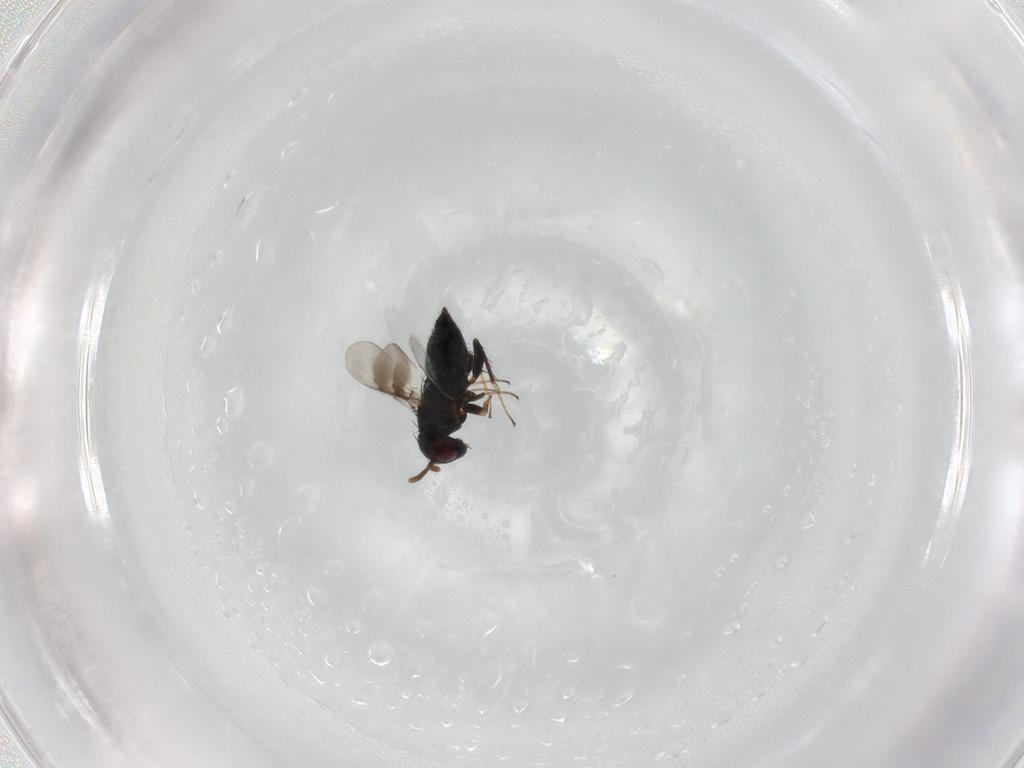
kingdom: Animalia
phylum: Arthropoda
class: Insecta
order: Hymenoptera
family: Pirenidae
